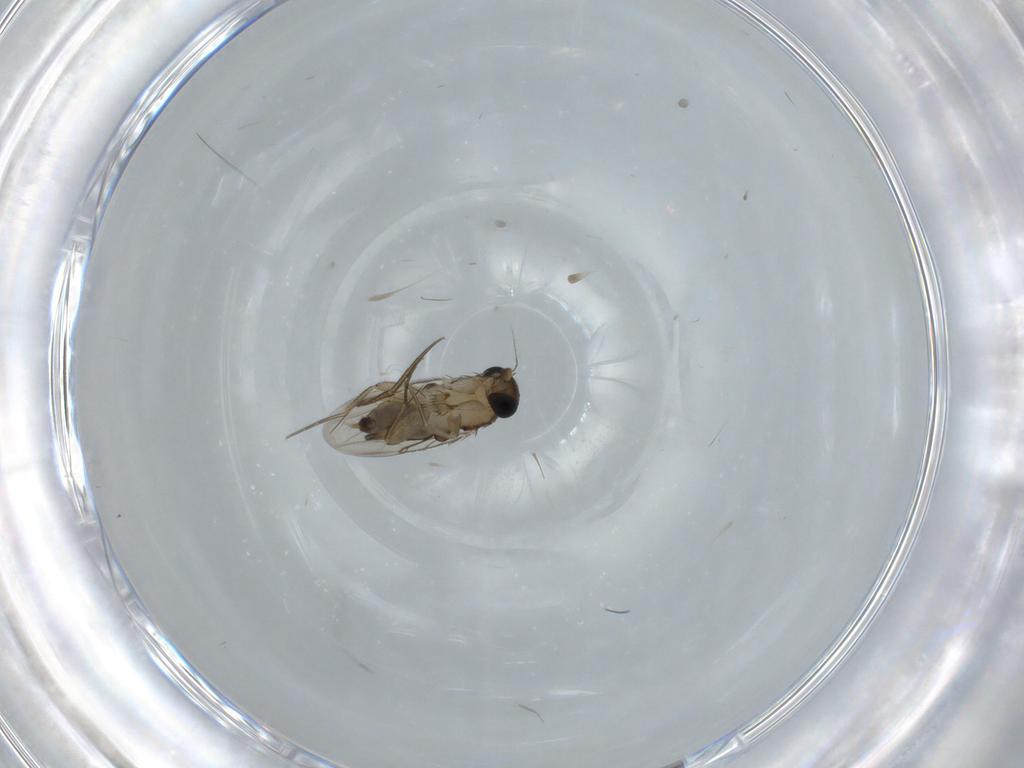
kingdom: Animalia
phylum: Arthropoda
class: Insecta
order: Diptera
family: Phoridae
